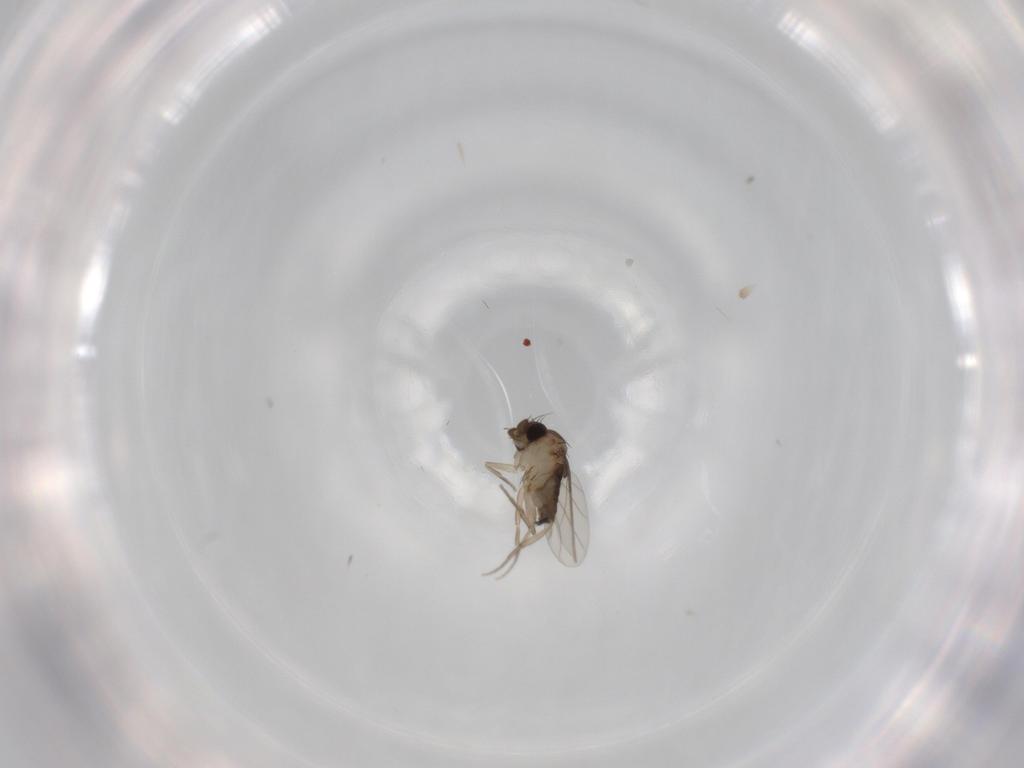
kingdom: Animalia
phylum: Arthropoda
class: Insecta
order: Diptera
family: Phoridae
